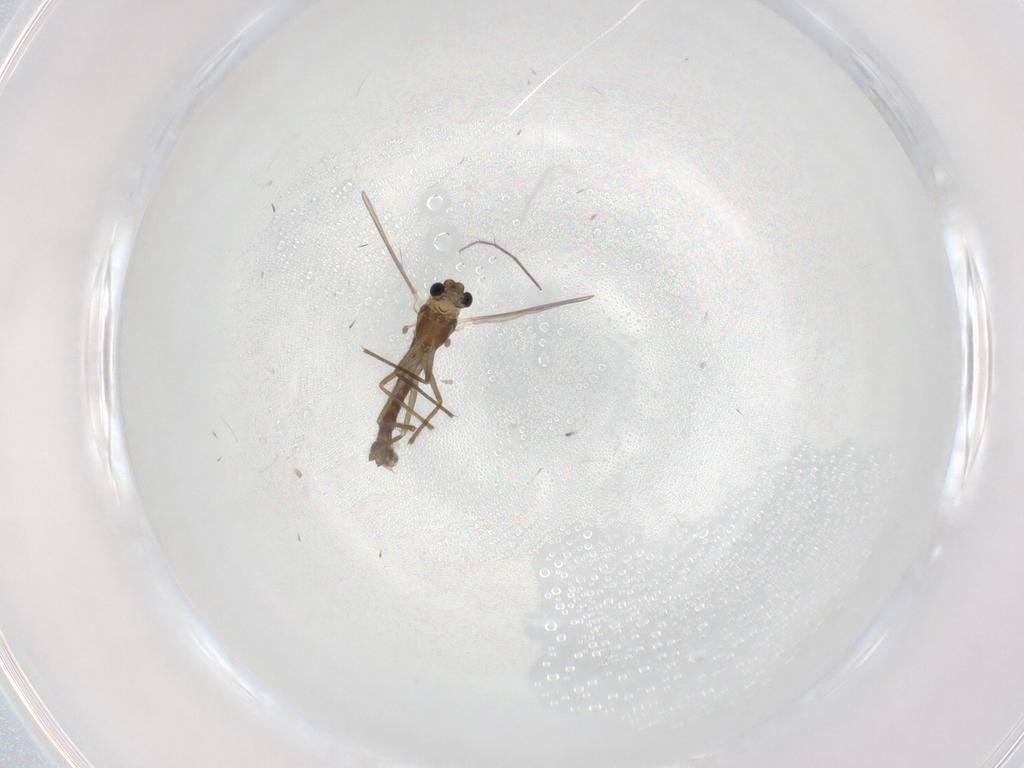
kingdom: Animalia
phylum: Arthropoda
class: Insecta
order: Diptera
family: Chironomidae
